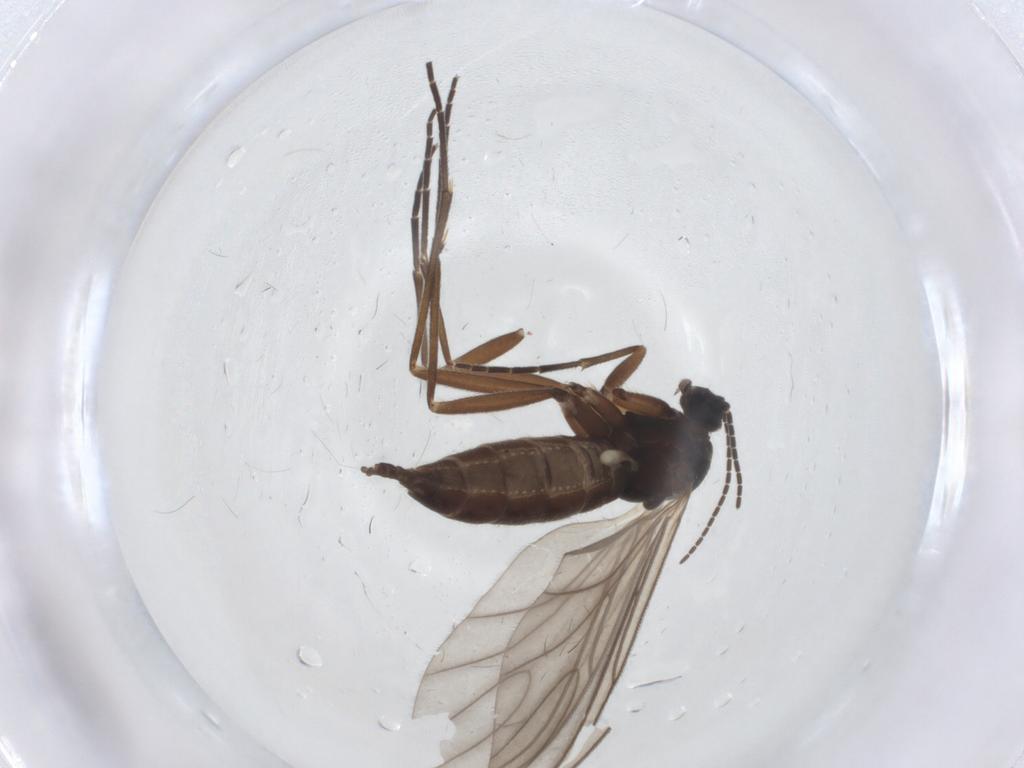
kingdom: Animalia
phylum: Arthropoda
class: Insecta
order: Diptera
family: Sciaridae
